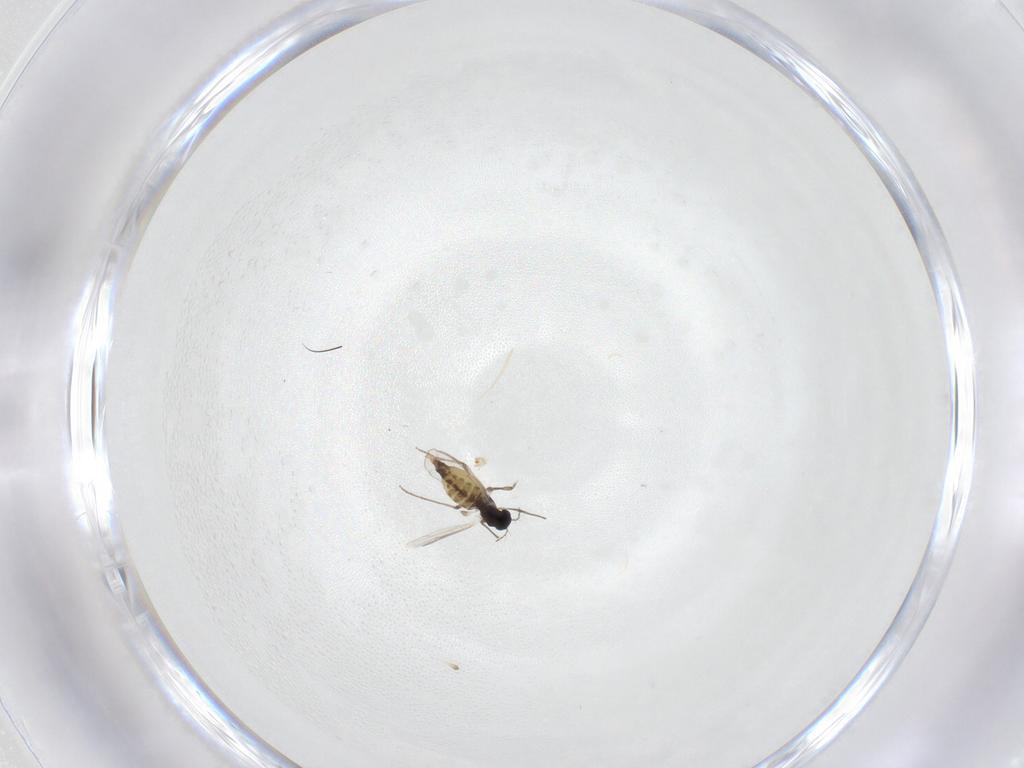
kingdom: Animalia
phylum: Arthropoda
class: Insecta
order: Diptera
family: Chironomidae
